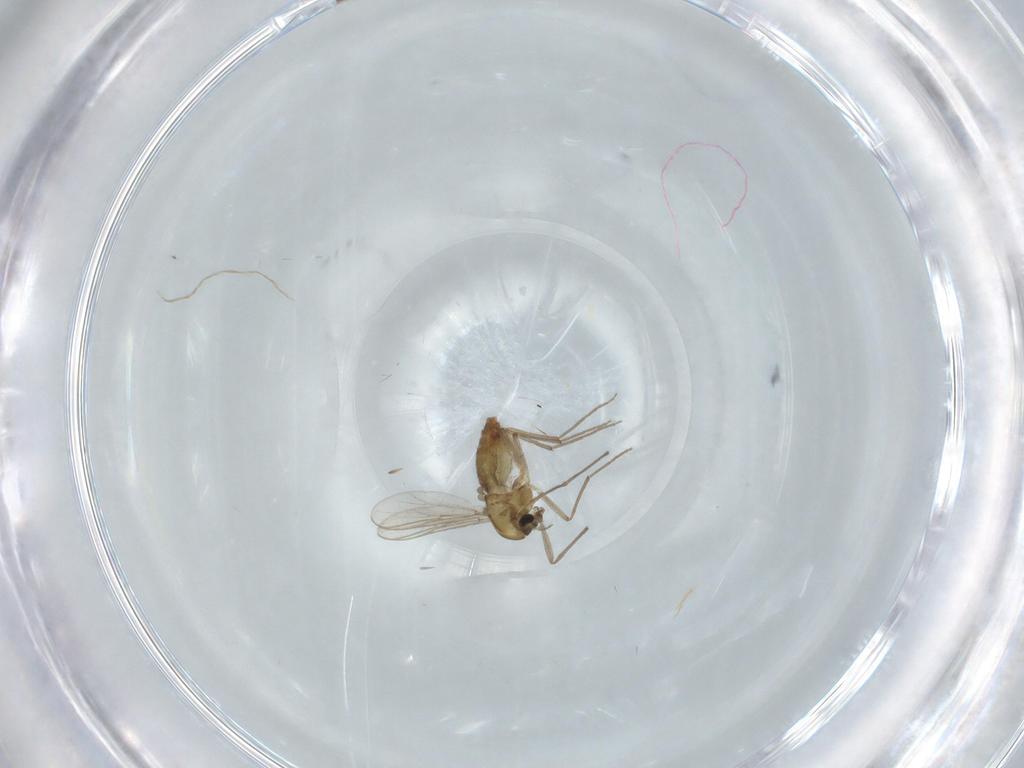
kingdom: Animalia
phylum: Arthropoda
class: Insecta
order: Diptera
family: Chironomidae
